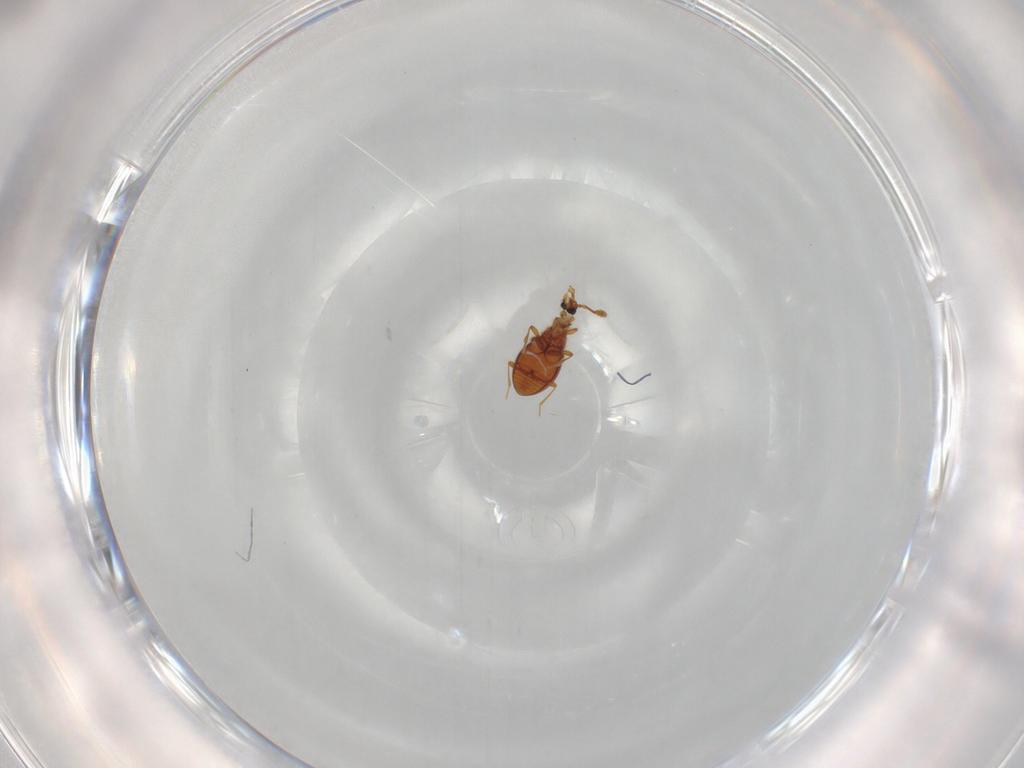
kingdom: Animalia
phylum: Arthropoda
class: Insecta
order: Coleoptera
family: Staphylinidae
